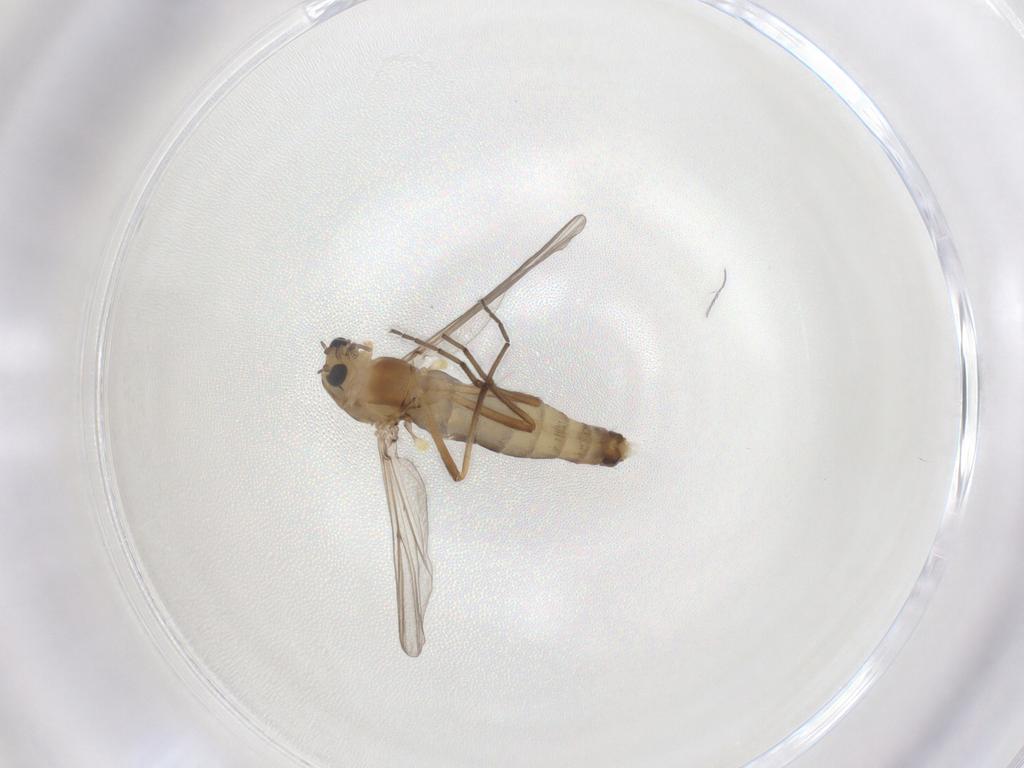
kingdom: Animalia
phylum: Arthropoda
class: Insecta
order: Diptera
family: Chironomidae
